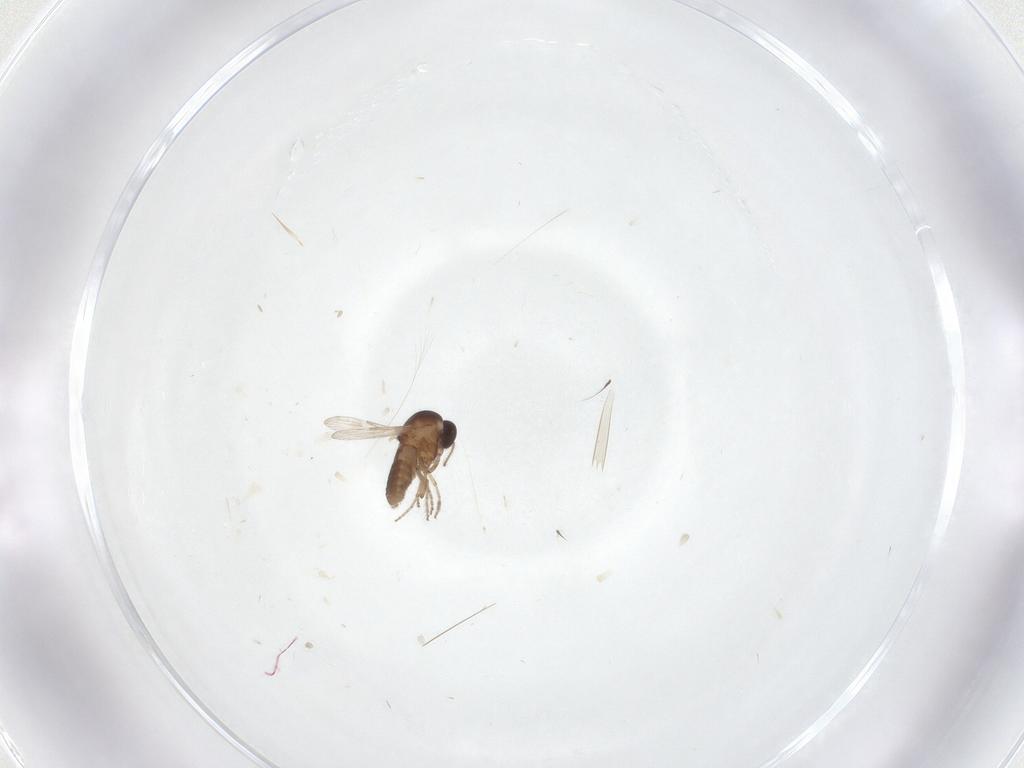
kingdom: Animalia
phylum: Arthropoda
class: Insecta
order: Diptera
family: Ceratopogonidae
